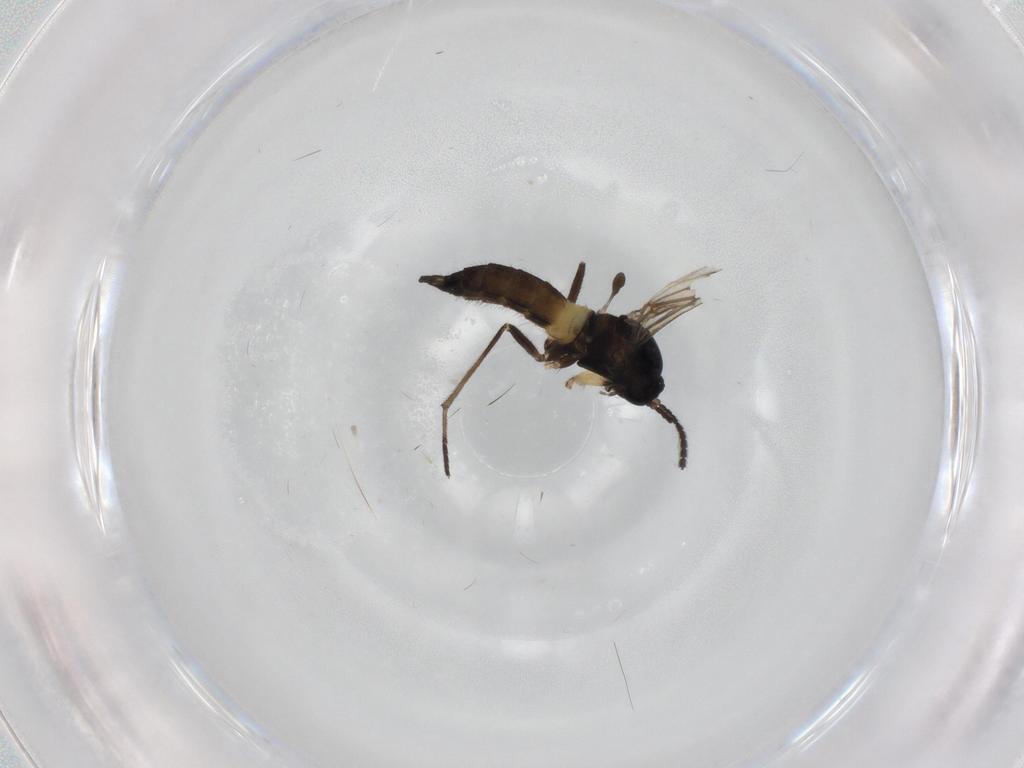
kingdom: Animalia
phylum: Arthropoda
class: Insecta
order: Diptera
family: Sciaridae
